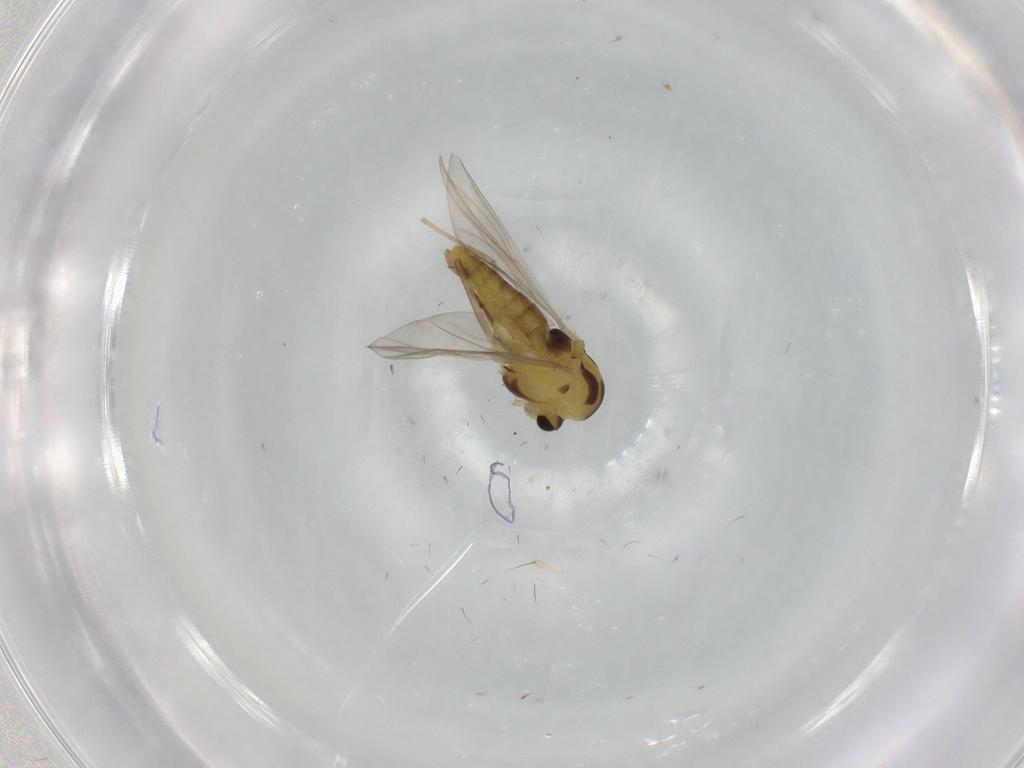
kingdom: Animalia
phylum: Arthropoda
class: Insecta
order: Diptera
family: Chironomidae
